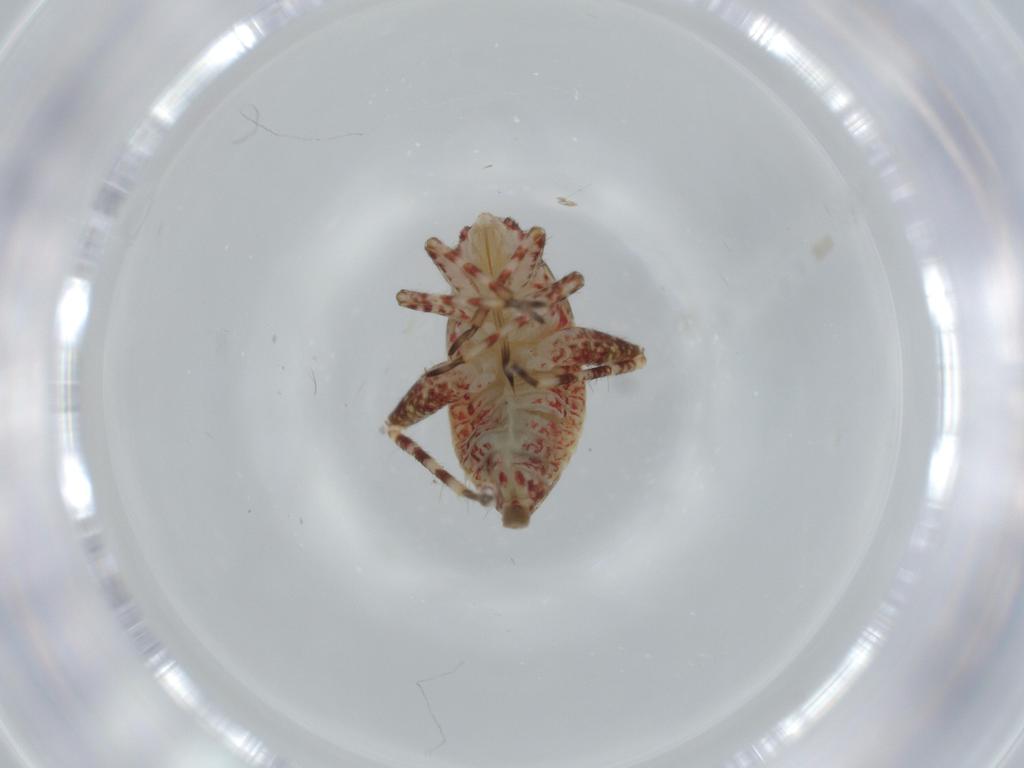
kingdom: Animalia
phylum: Arthropoda
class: Insecta
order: Hemiptera
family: Miridae
